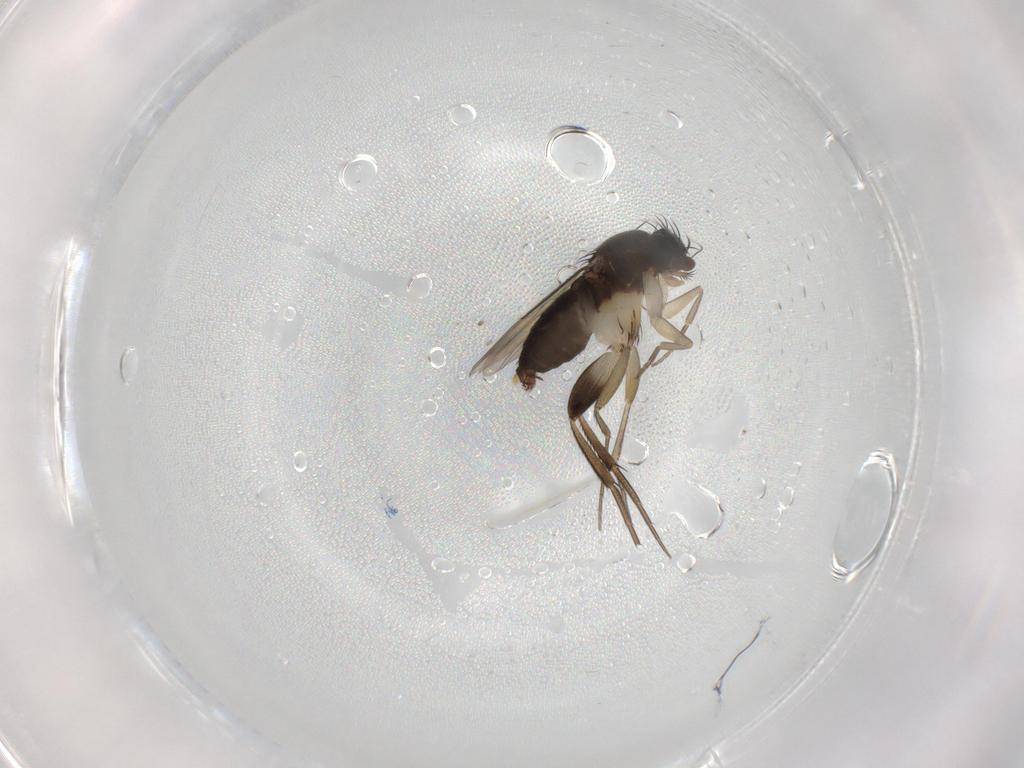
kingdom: Animalia
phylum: Arthropoda
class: Insecta
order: Diptera
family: Phoridae
